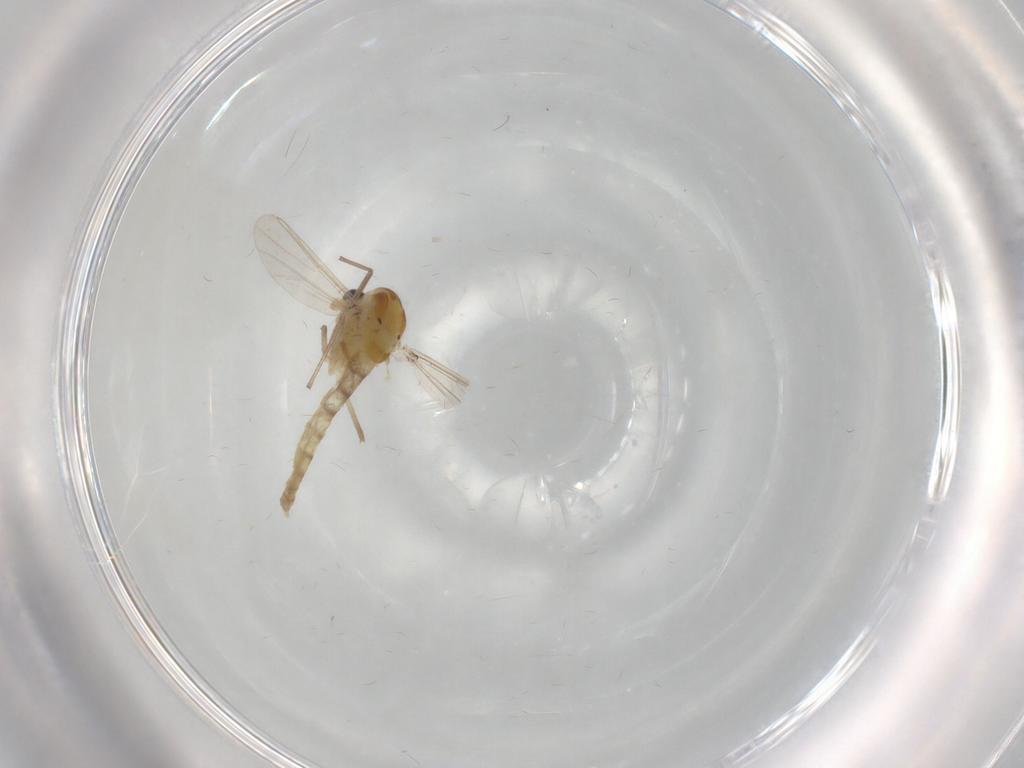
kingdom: Animalia
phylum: Arthropoda
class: Insecta
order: Diptera
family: Chironomidae
